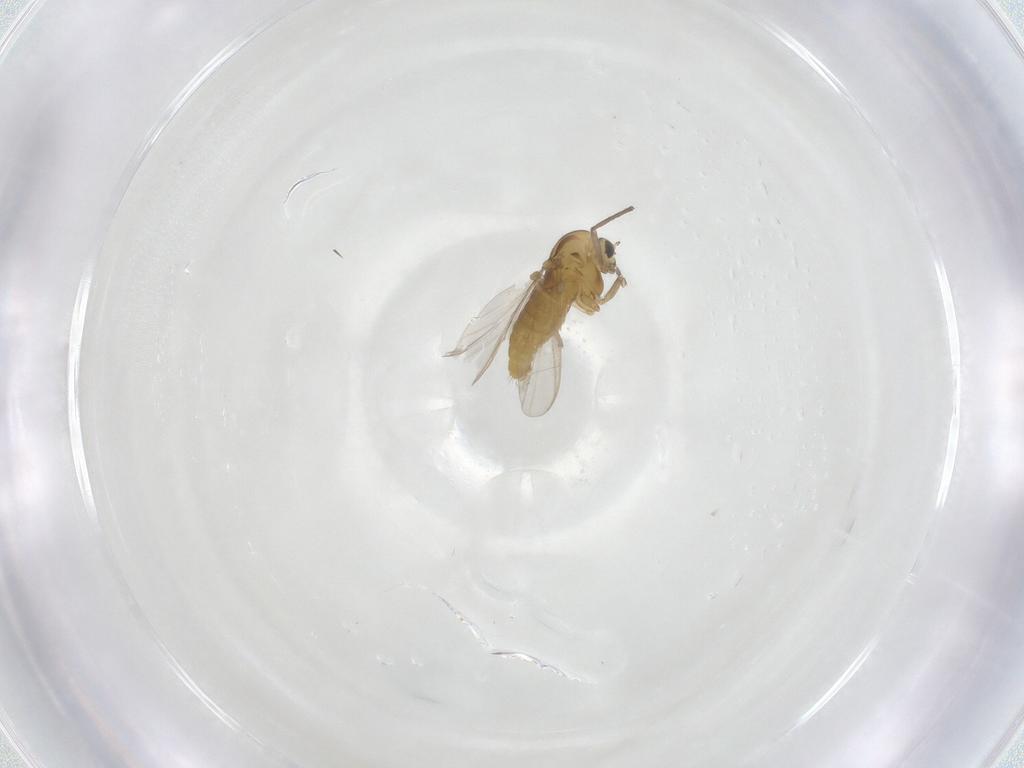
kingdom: Animalia
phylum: Arthropoda
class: Insecta
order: Diptera
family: Chironomidae
